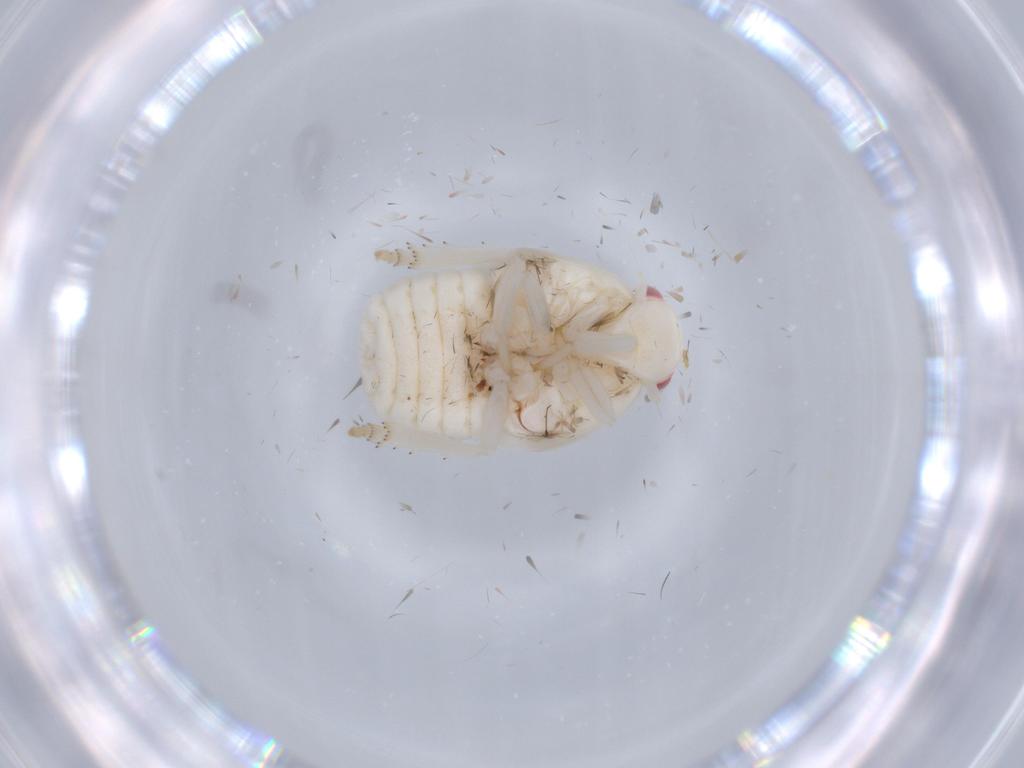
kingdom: Animalia
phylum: Arthropoda
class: Insecta
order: Hemiptera
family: Flatidae
